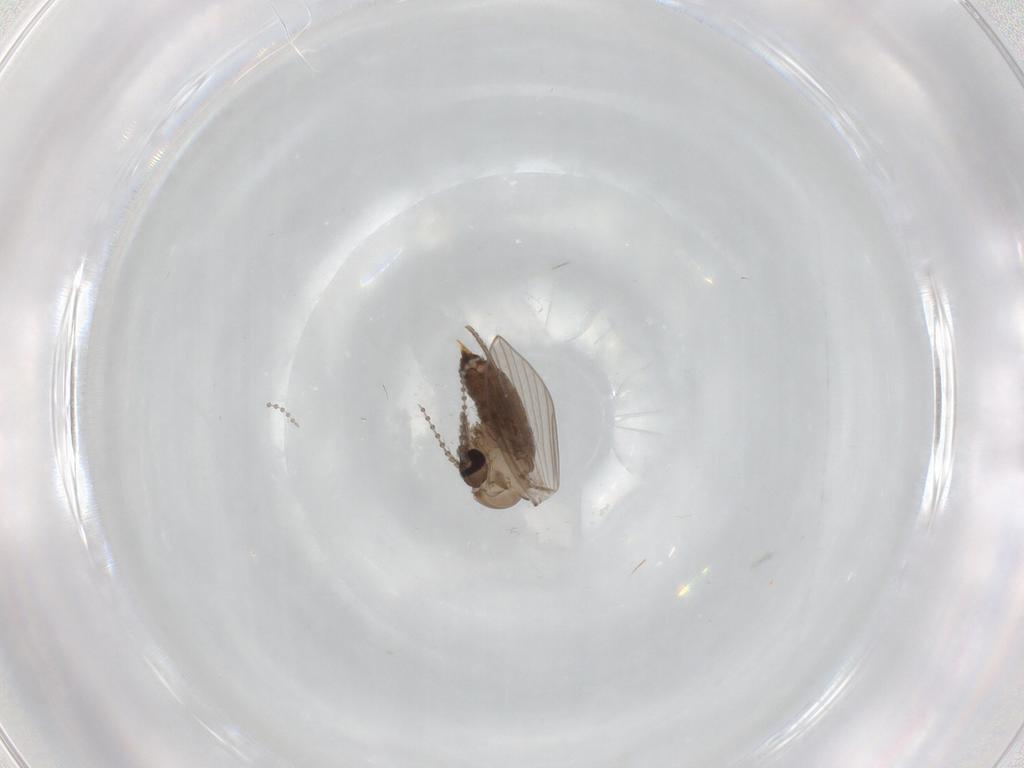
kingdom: Animalia
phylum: Arthropoda
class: Insecta
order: Diptera
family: Psychodidae
